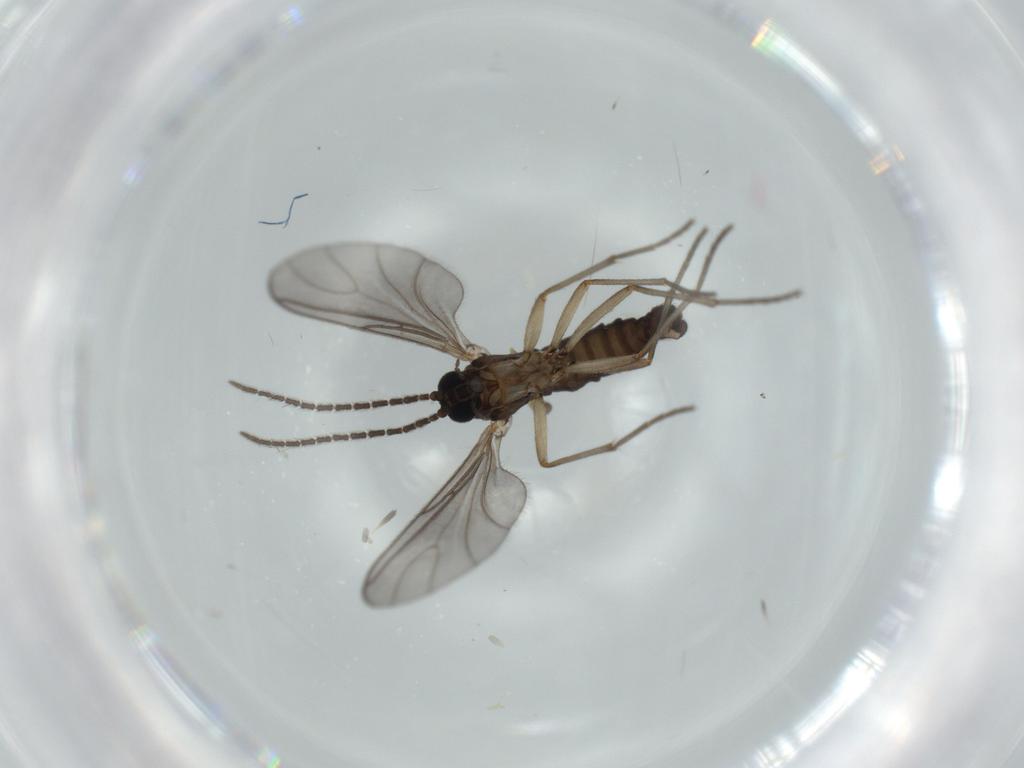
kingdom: Animalia
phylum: Arthropoda
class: Insecta
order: Diptera
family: Sciaridae
